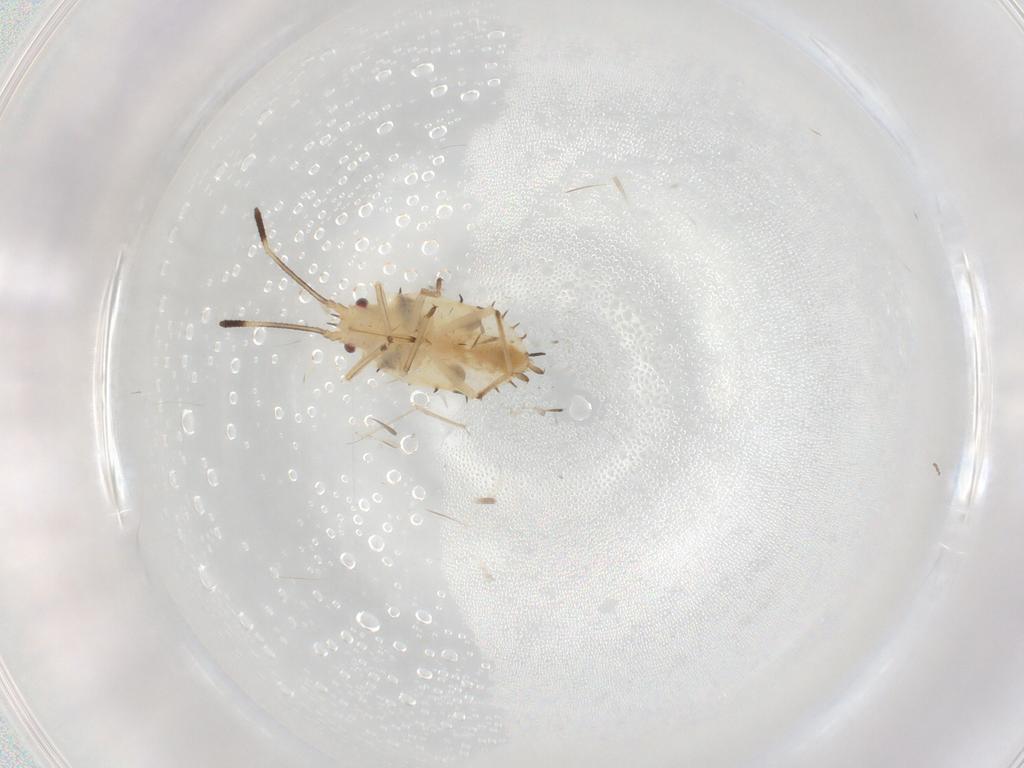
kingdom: Animalia
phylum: Arthropoda
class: Insecta
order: Hemiptera
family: Tingidae
